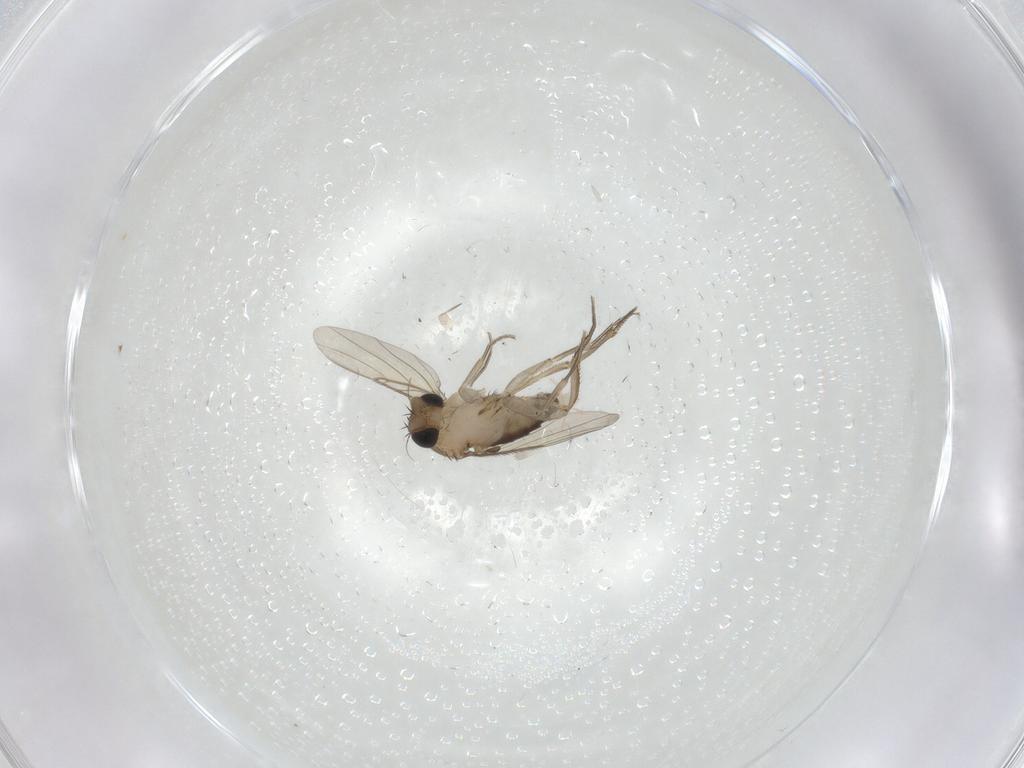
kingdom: Animalia
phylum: Arthropoda
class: Insecta
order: Diptera
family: Phoridae
